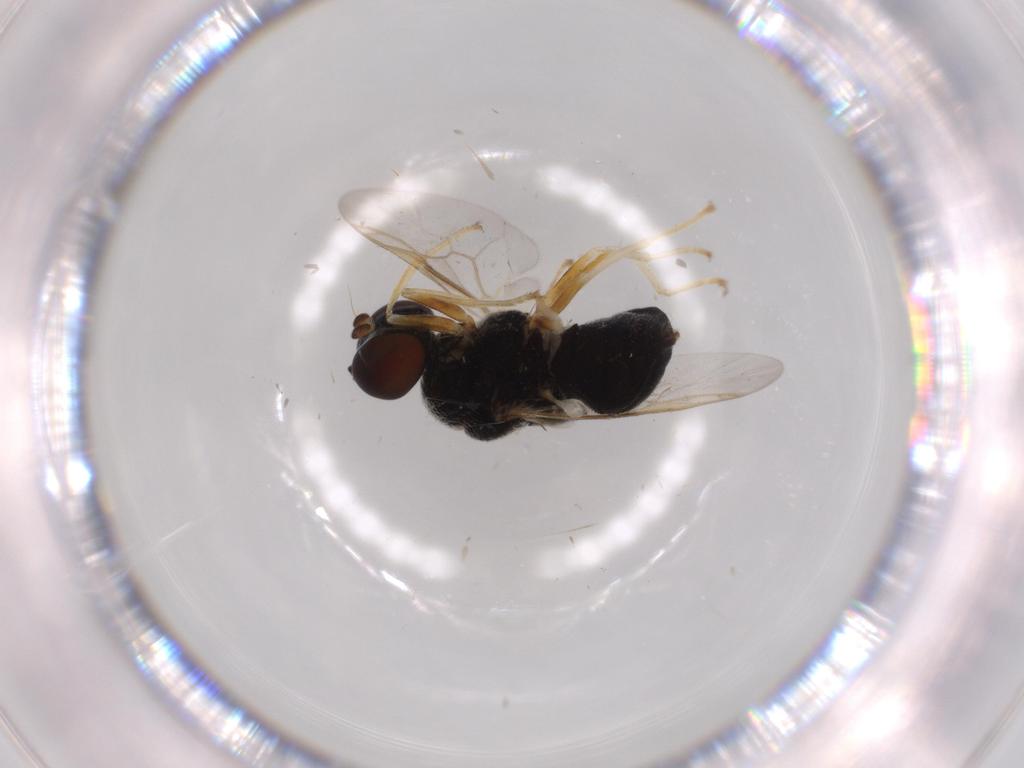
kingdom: Animalia
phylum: Arthropoda
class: Insecta
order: Diptera
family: Stratiomyidae
